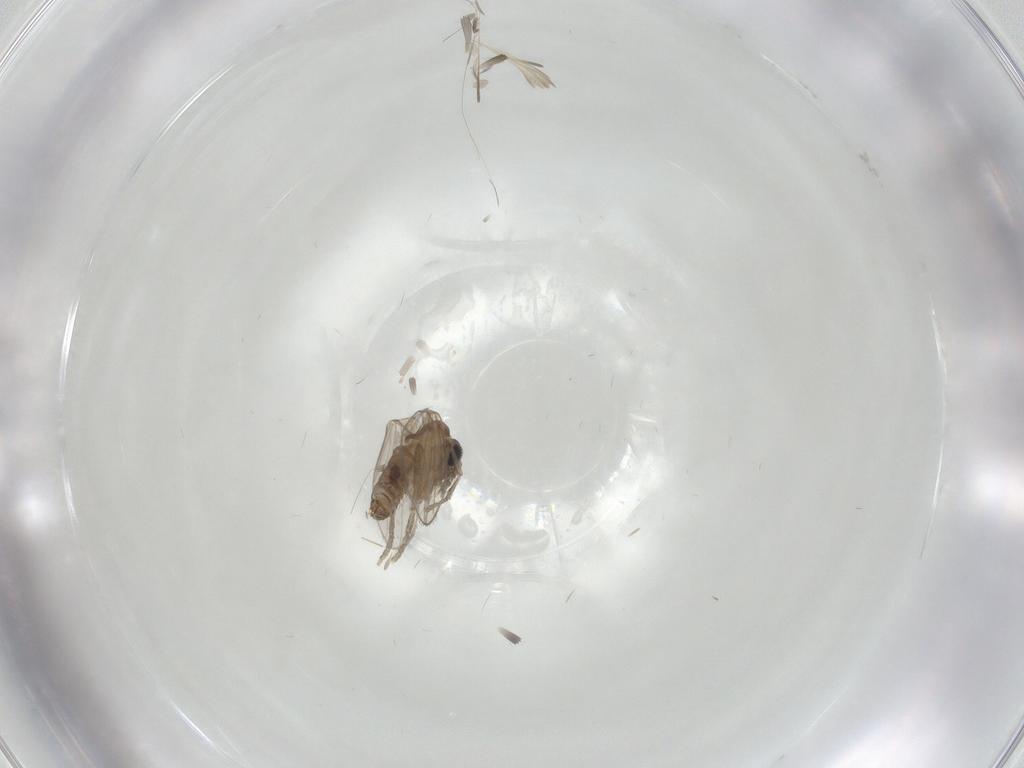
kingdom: Animalia
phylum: Arthropoda
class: Insecta
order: Diptera
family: Psychodidae
